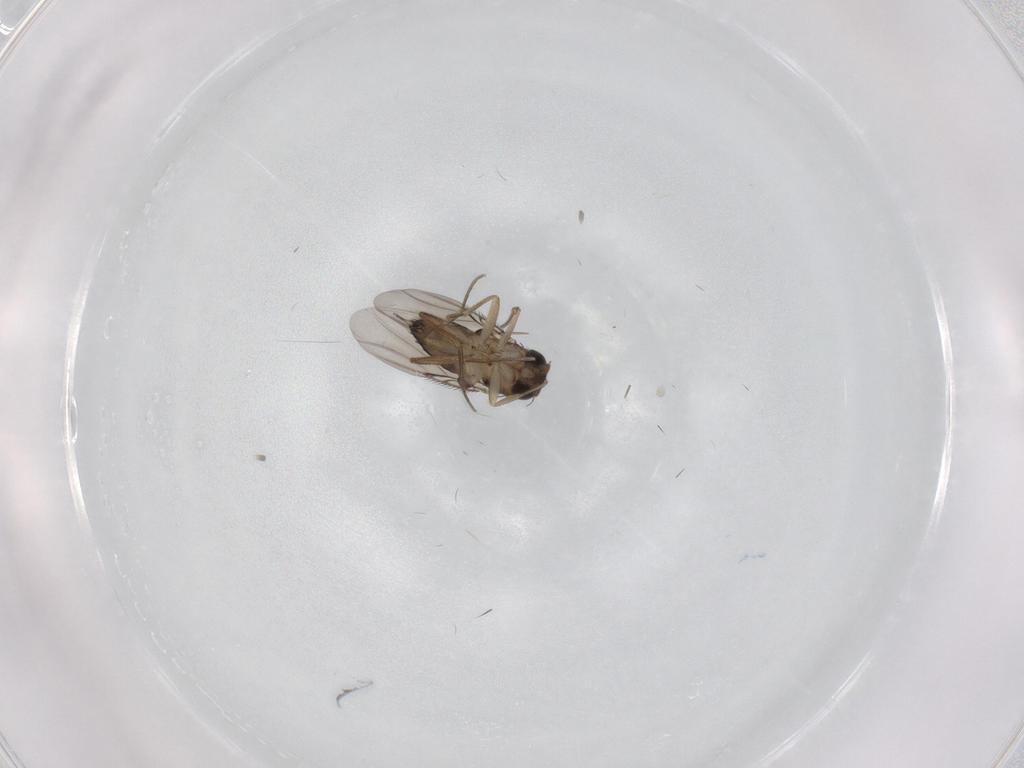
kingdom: Animalia
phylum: Arthropoda
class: Insecta
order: Diptera
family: Phoridae
